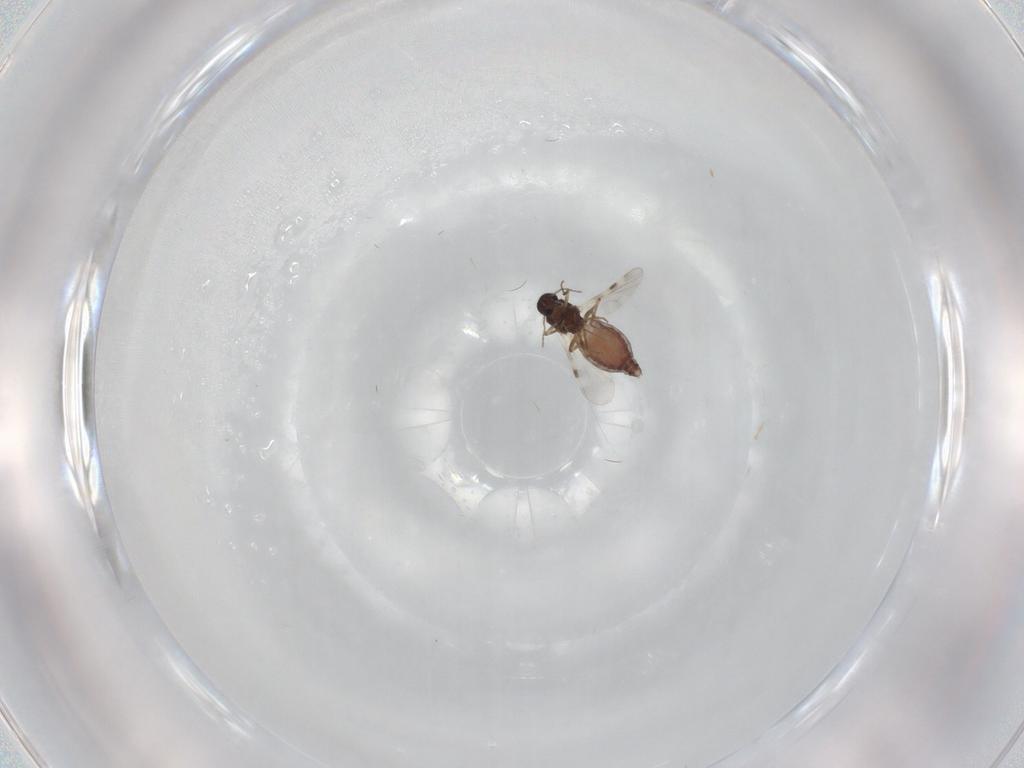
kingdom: Animalia
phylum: Arthropoda
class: Insecta
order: Diptera
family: Chironomidae
